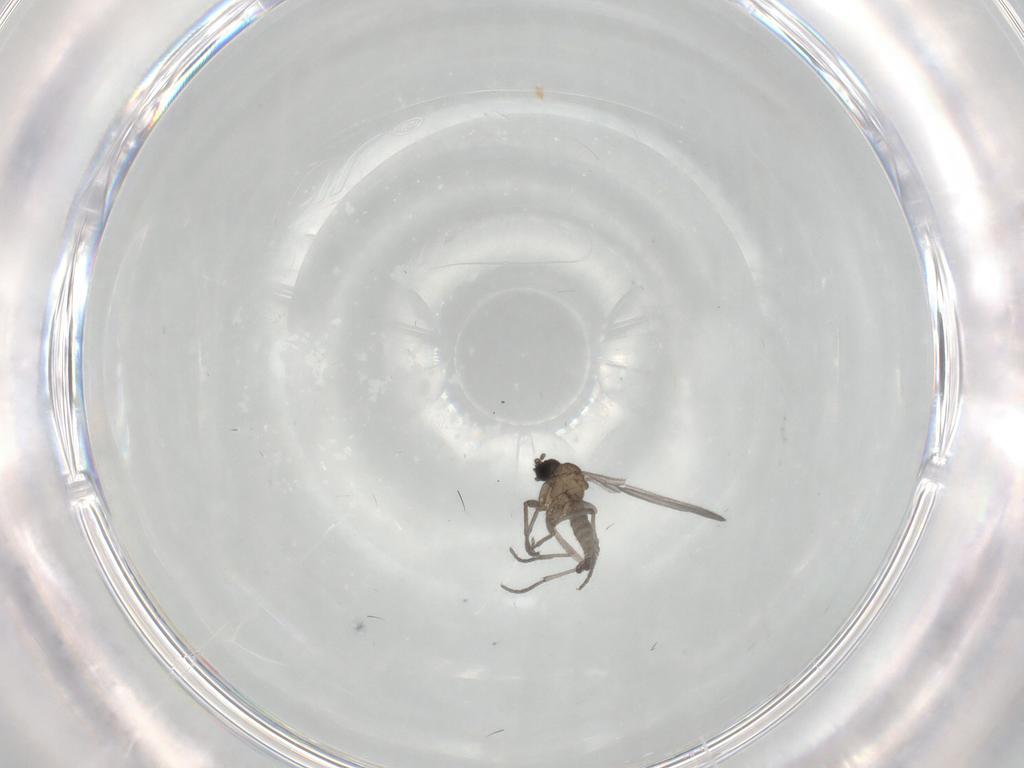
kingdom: Animalia
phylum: Arthropoda
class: Insecta
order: Diptera
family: Sciaridae
